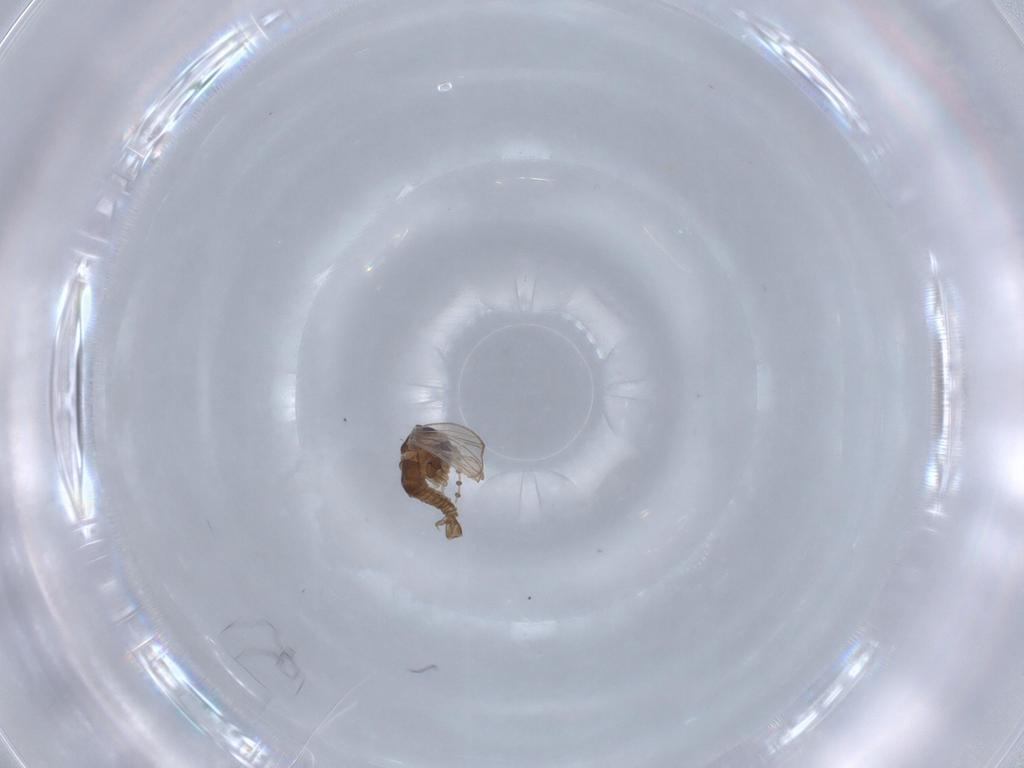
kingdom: Animalia
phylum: Arthropoda
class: Insecta
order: Diptera
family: Psychodidae
